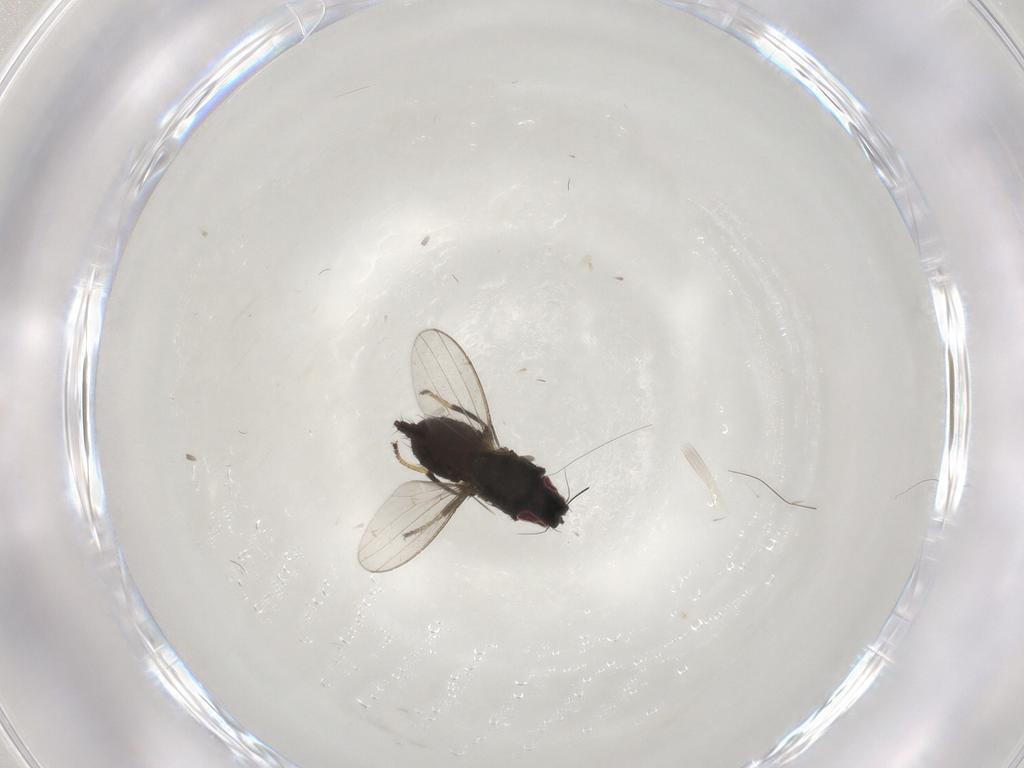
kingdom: Animalia
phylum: Arthropoda
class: Insecta
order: Diptera
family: Milichiidae
